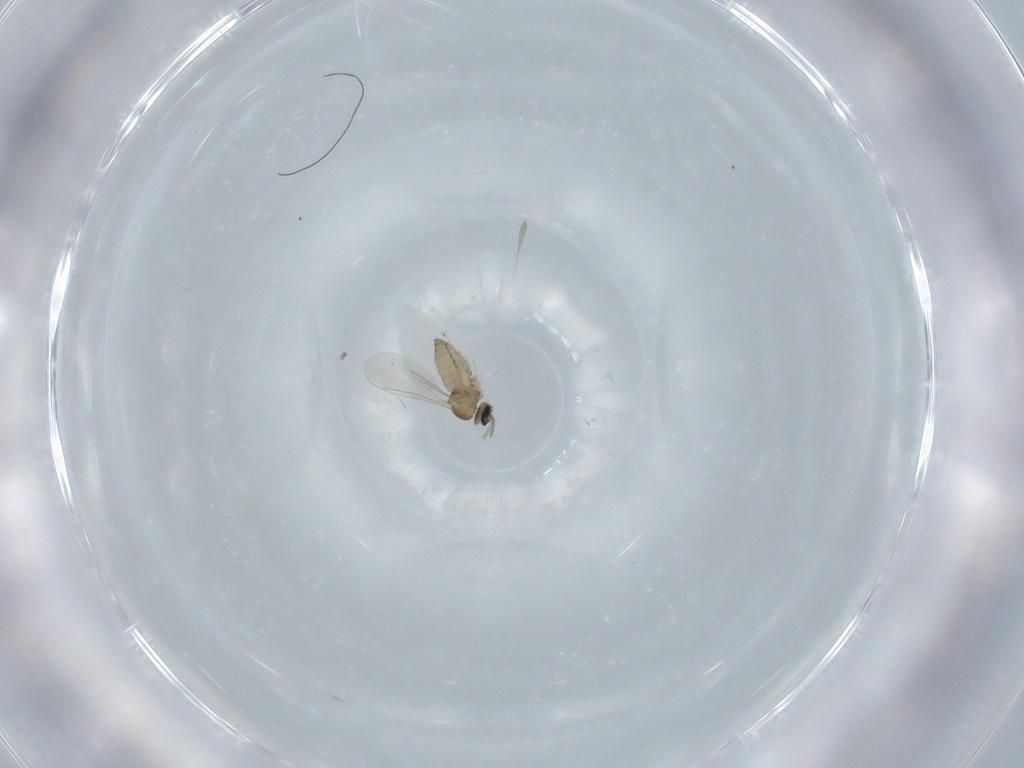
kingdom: Animalia
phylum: Arthropoda
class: Insecta
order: Diptera
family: Cecidomyiidae
